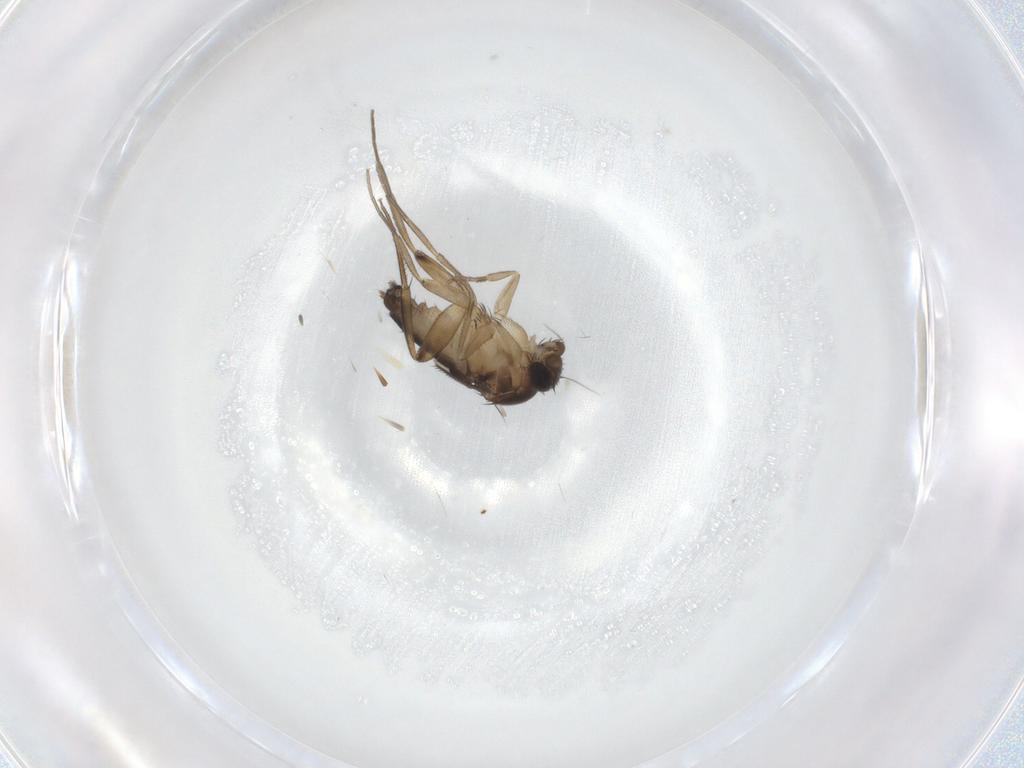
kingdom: Animalia
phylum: Arthropoda
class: Insecta
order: Diptera
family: Phoridae
